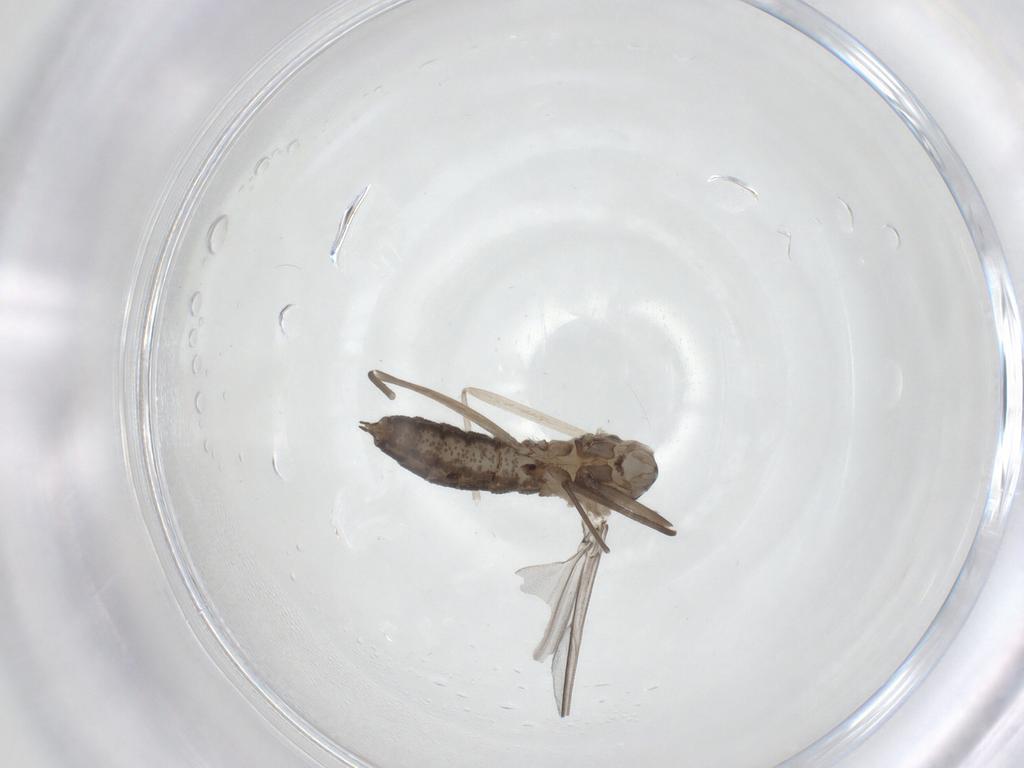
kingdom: Animalia
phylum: Arthropoda
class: Insecta
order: Diptera
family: Cecidomyiidae
